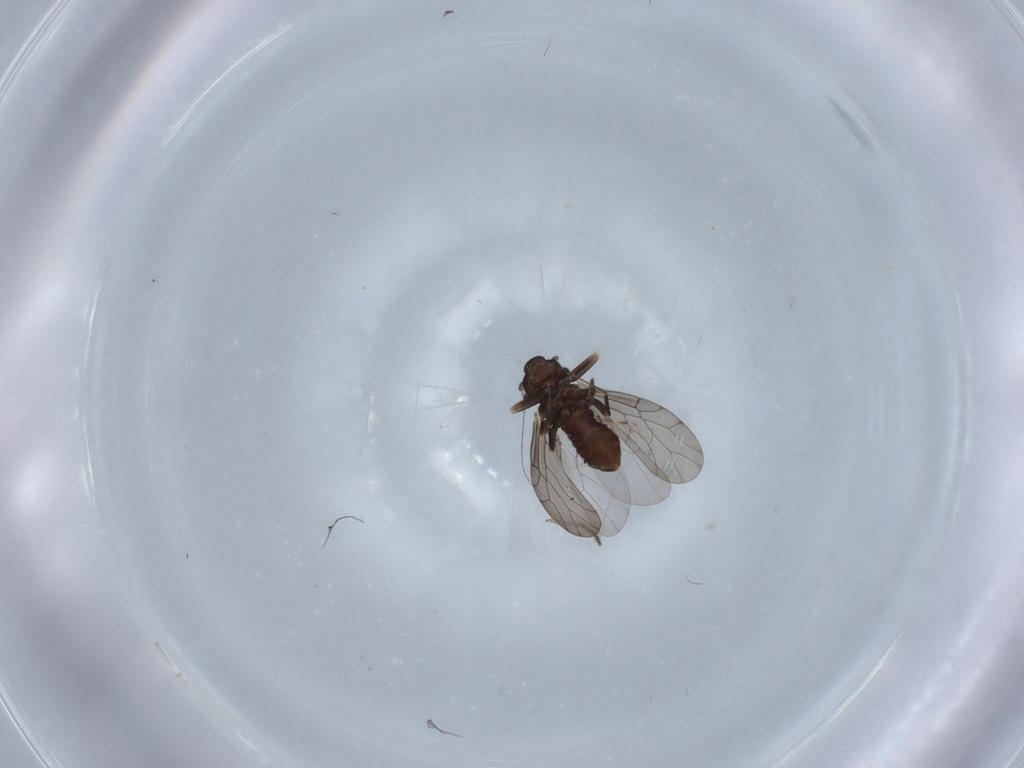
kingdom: Animalia
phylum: Arthropoda
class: Insecta
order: Psocodea
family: Lepidopsocidae
